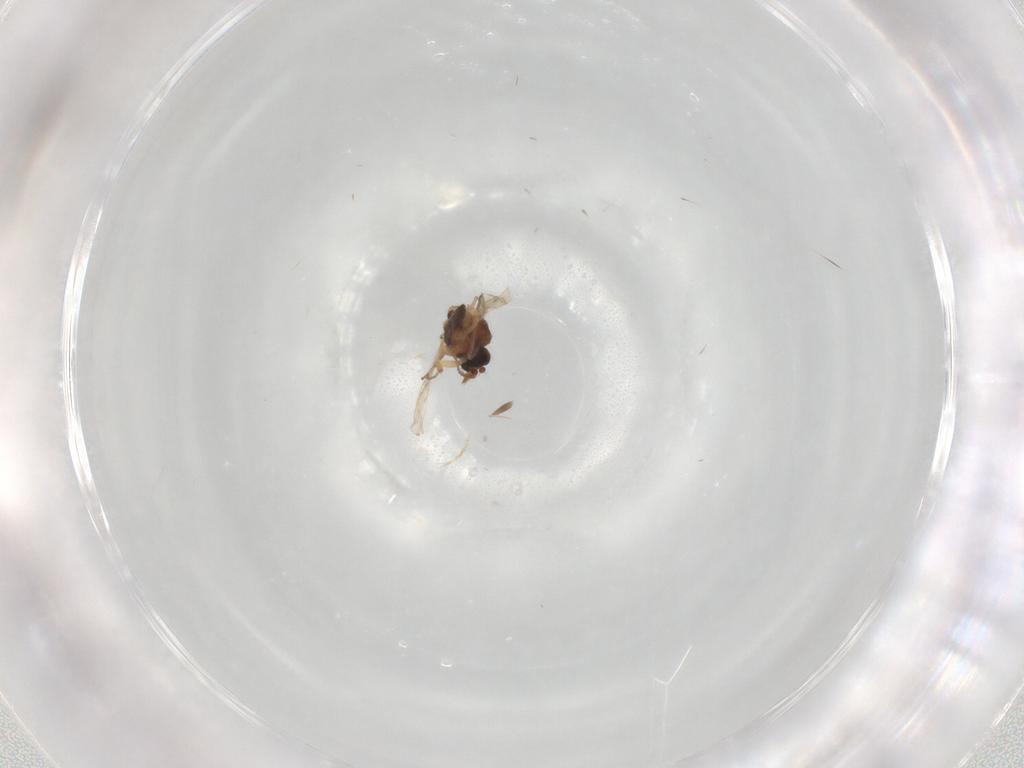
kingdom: Animalia
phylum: Arthropoda
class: Insecta
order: Diptera
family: Ceratopogonidae
